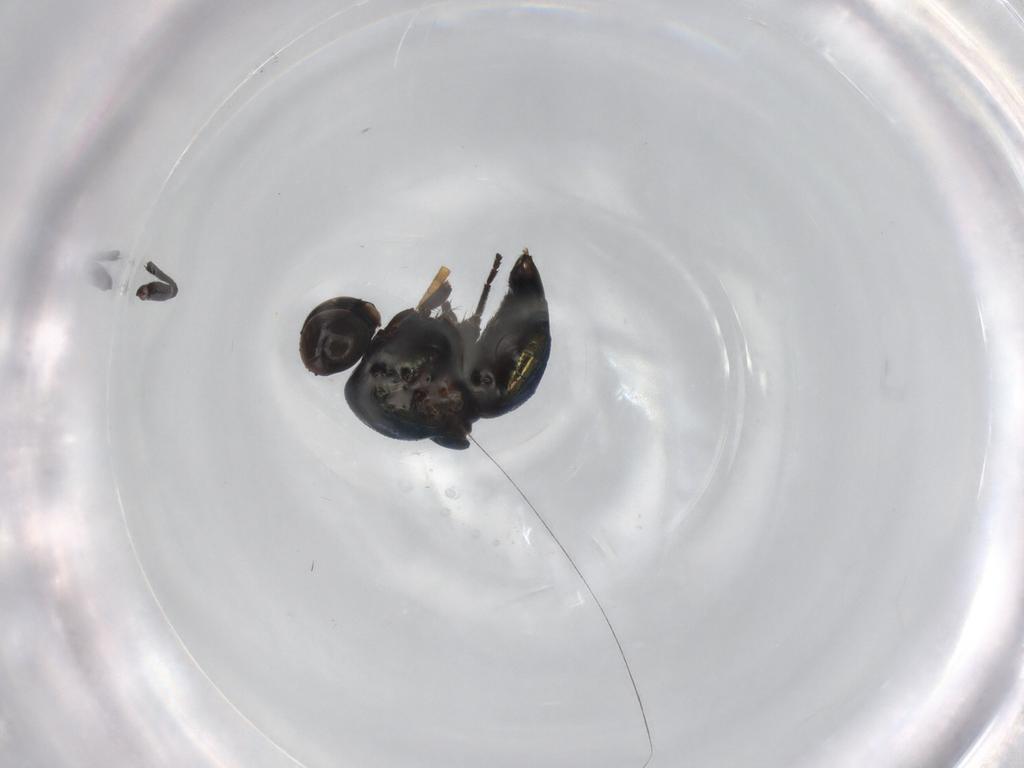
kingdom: Animalia
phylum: Arthropoda
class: Insecta
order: Diptera
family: Agromyzidae
